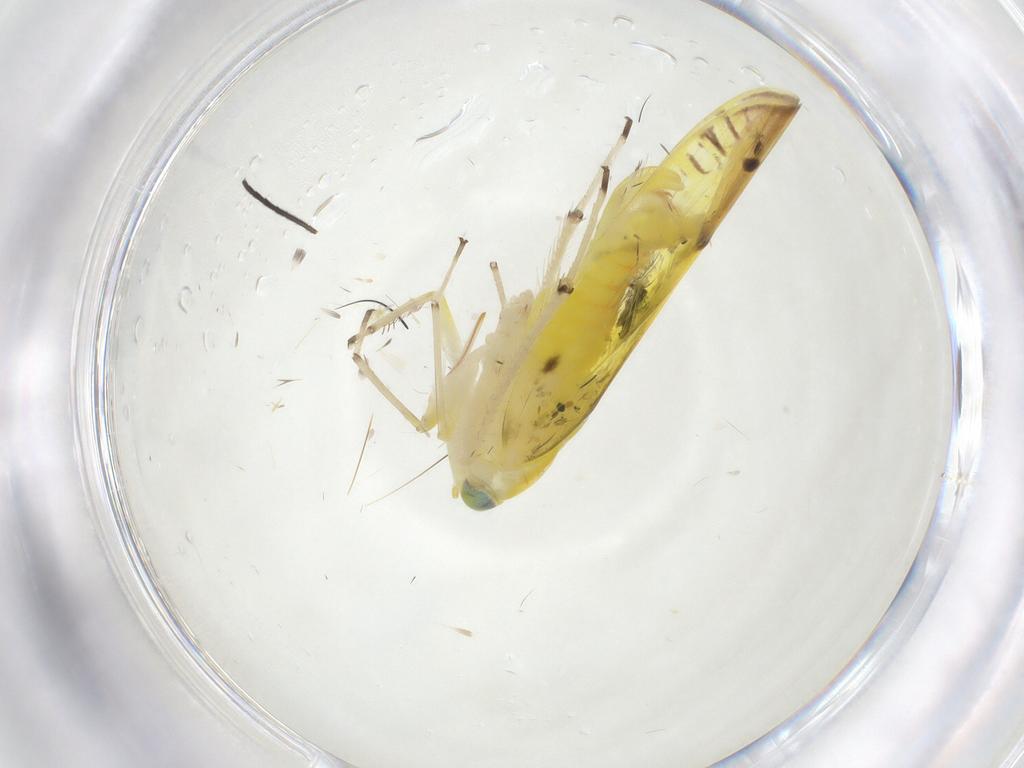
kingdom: Animalia
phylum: Arthropoda
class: Insecta
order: Hemiptera
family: Cicadellidae
